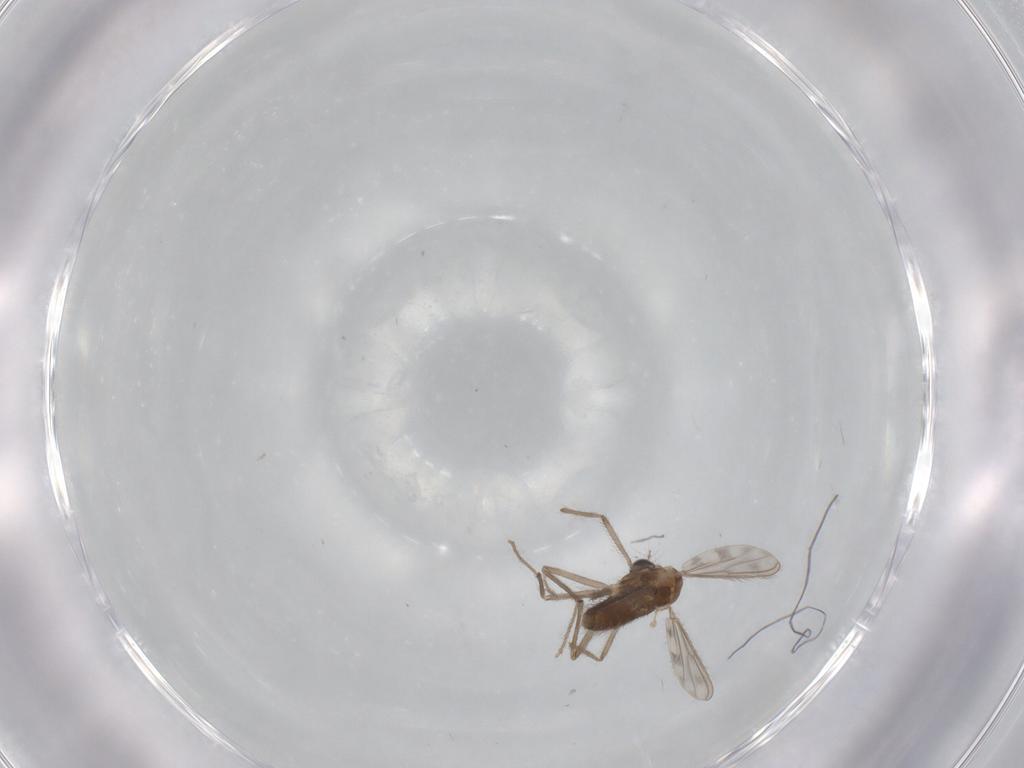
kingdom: Animalia
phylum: Arthropoda
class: Insecta
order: Diptera
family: Chironomidae
